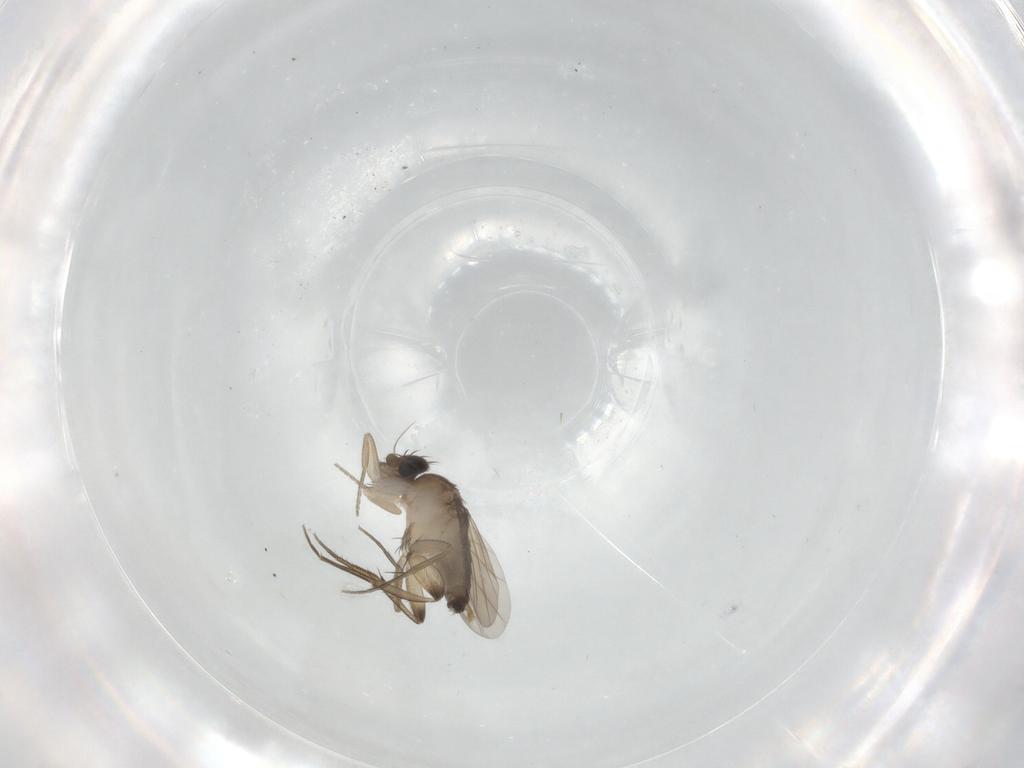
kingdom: Animalia
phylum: Arthropoda
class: Insecta
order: Diptera
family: Phoridae
